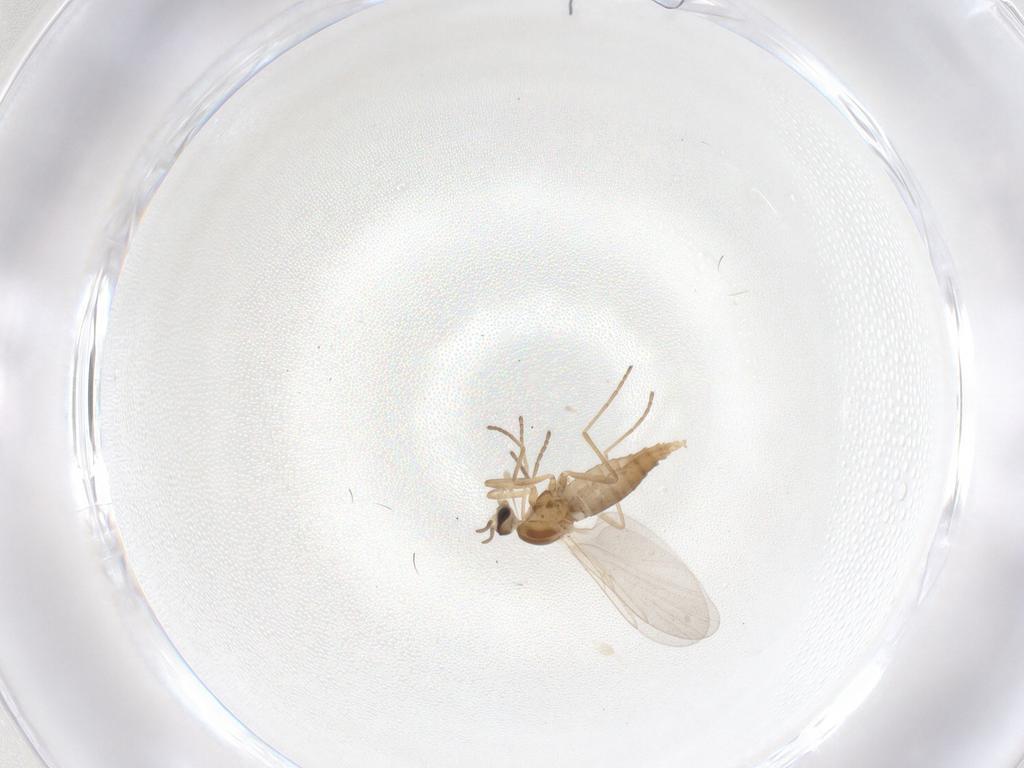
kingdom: Animalia
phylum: Arthropoda
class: Insecta
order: Diptera
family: Cecidomyiidae
